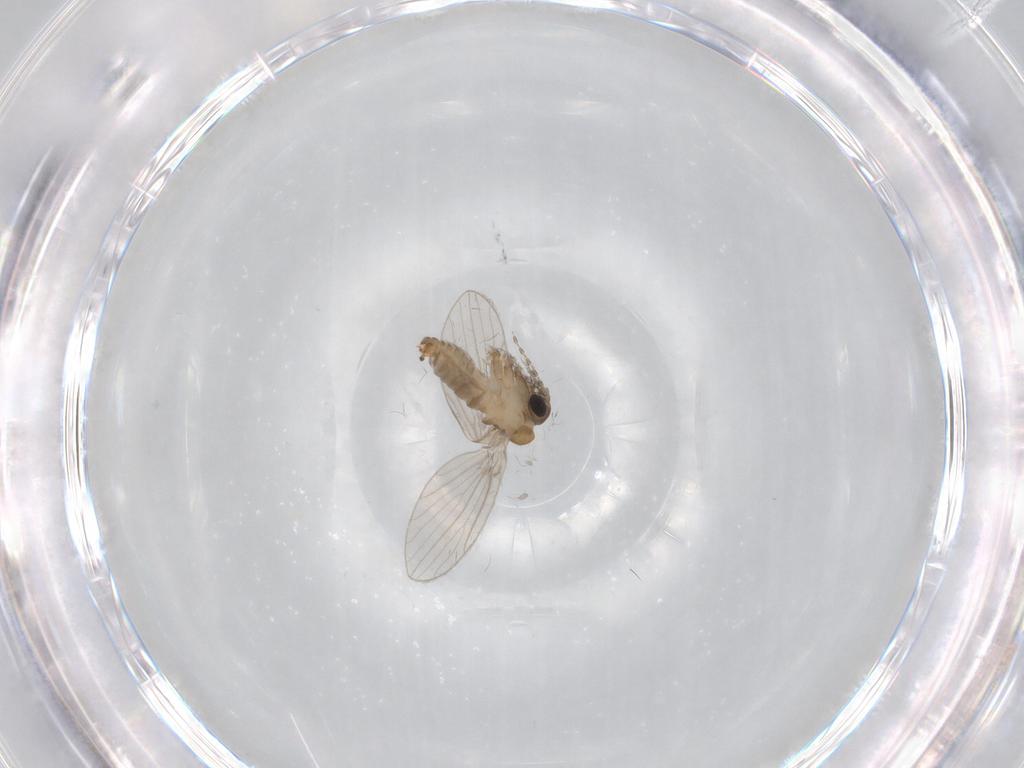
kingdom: Animalia
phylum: Arthropoda
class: Insecta
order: Diptera
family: Psychodidae
